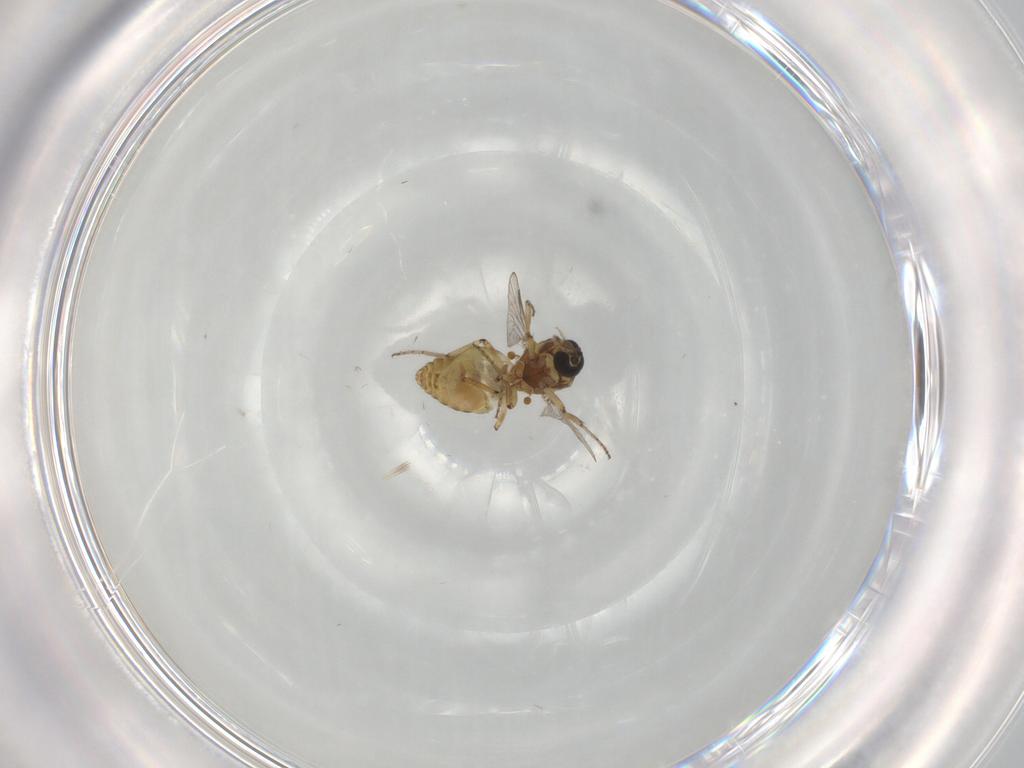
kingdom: Animalia
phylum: Arthropoda
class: Insecta
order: Diptera
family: Ceratopogonidae
